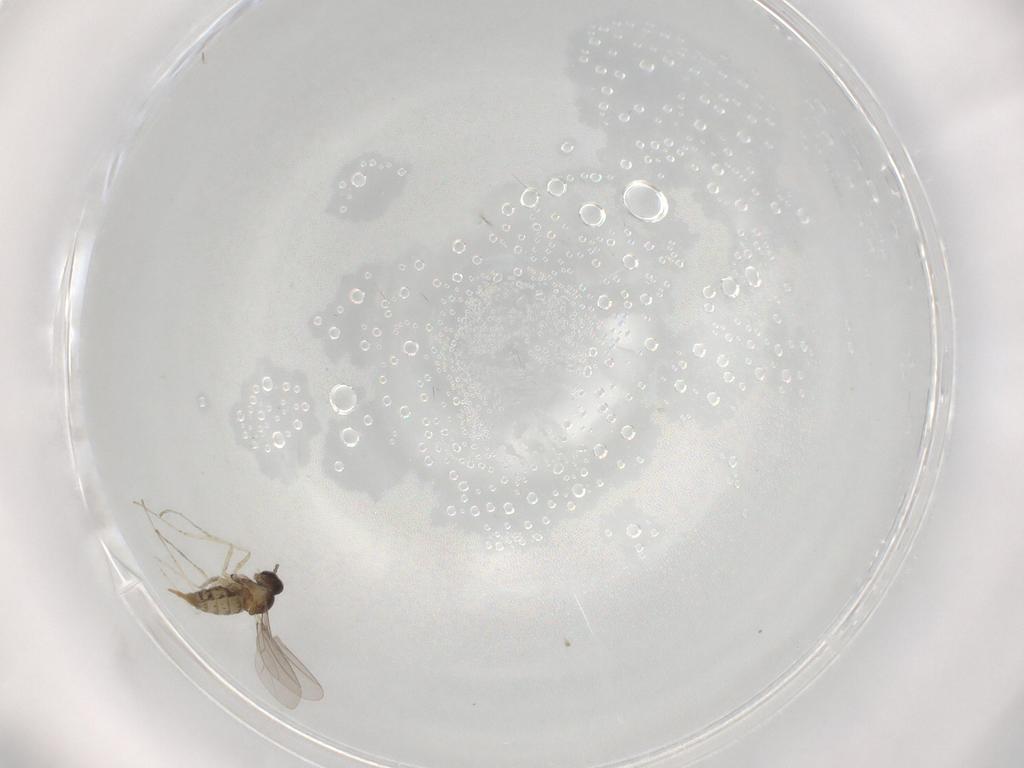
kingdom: Animalia
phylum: Arthropoda
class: Insecta
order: Diptera
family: Cecidomyiidae
